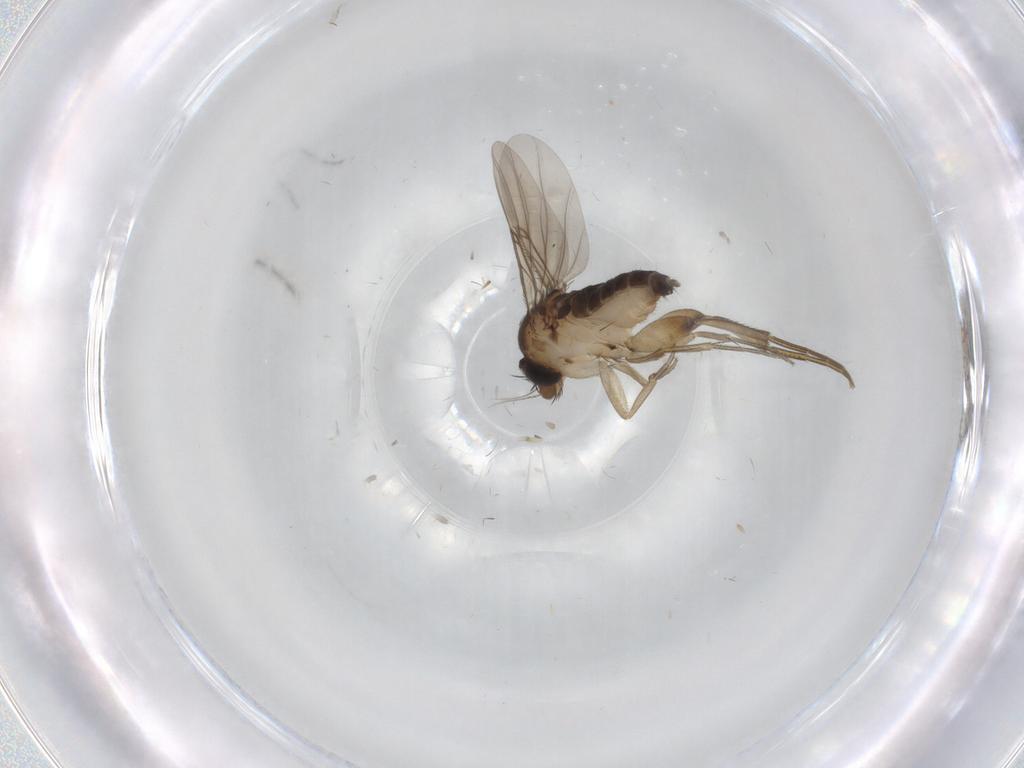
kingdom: Animalia
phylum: Arthropoda
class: Insecta
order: Diptera
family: Phoridae
